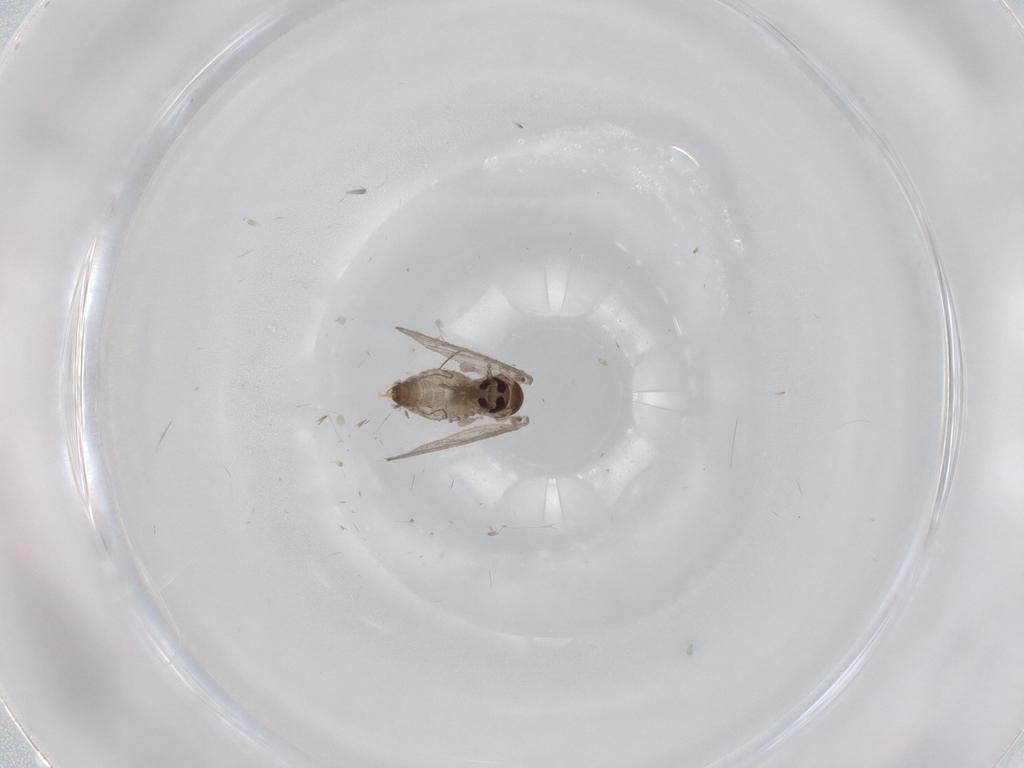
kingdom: Animalia
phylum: Arthropoda
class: Insecta
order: Diptera
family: Psychodidae
